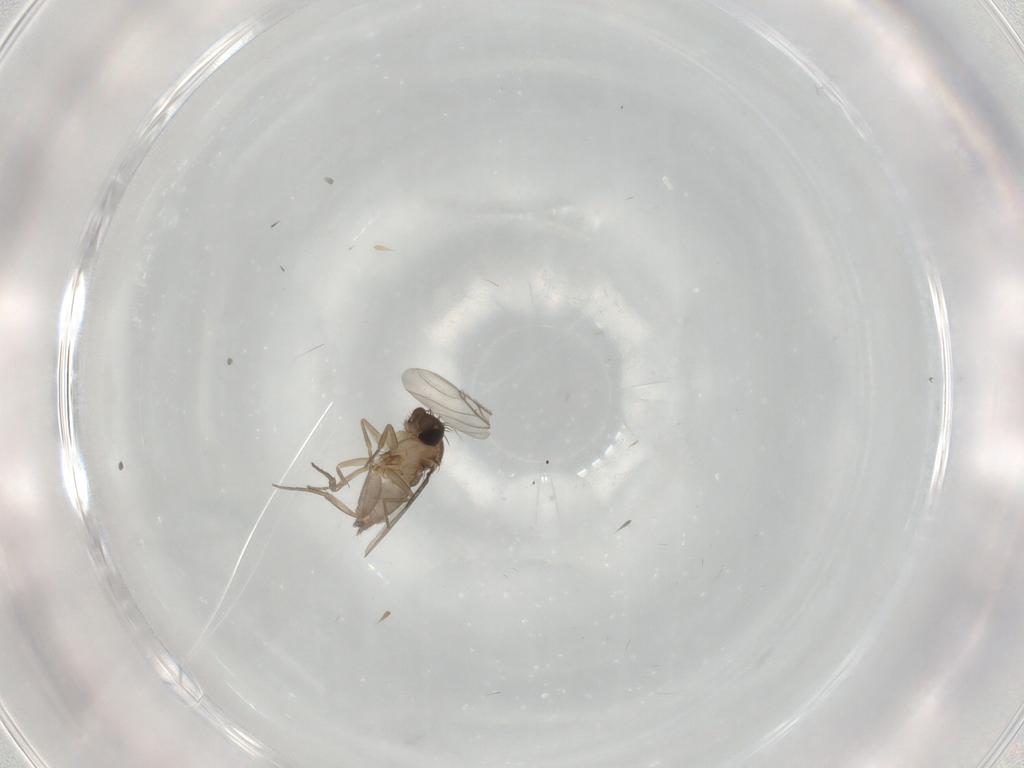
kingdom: Animalia
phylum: Arthropoda
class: Insecta
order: Diptera
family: Phoridae
